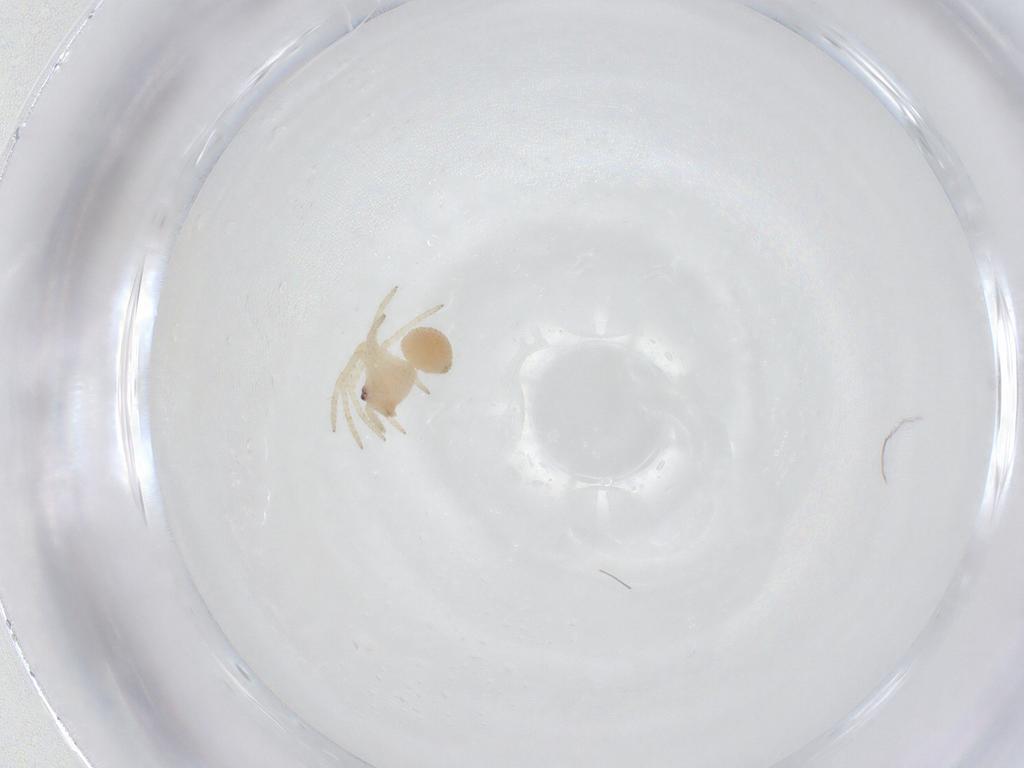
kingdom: Animalia
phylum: Arthropoda
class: Arachnida
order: Araneae
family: Theridiidae
